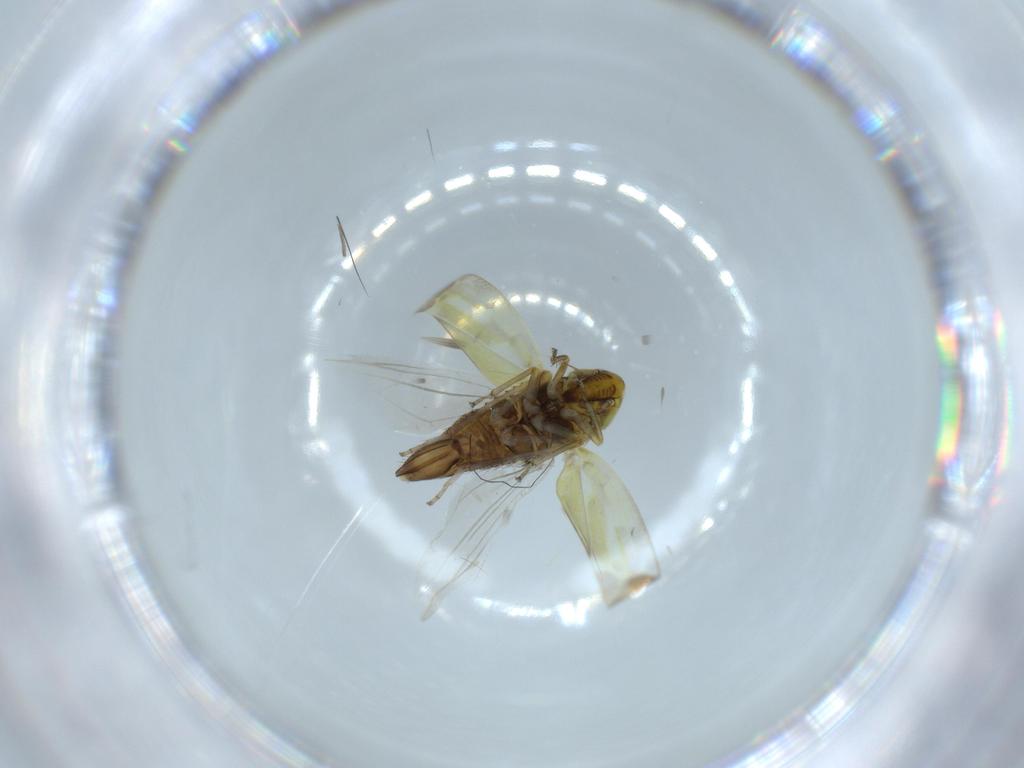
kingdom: Animalia
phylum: Arthropoda
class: Insecta
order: Hemiptera
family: Cicadellidae
